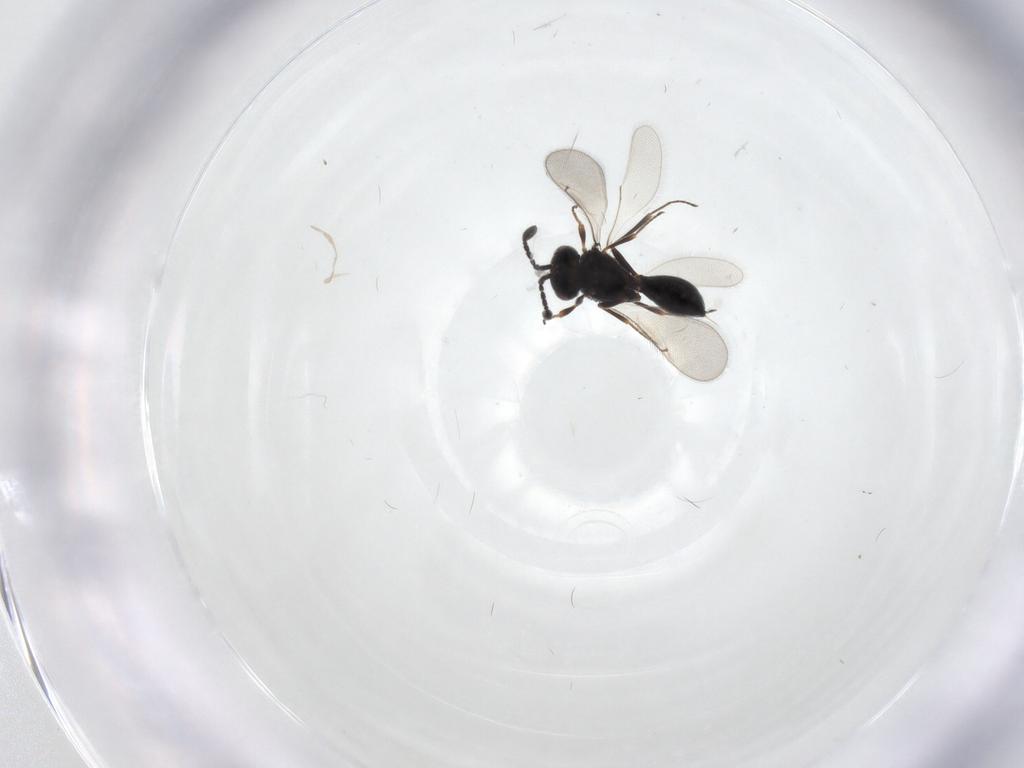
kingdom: Animalia
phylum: Arthropoda
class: Insecta
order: Hymenoptera
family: Scelionidae
